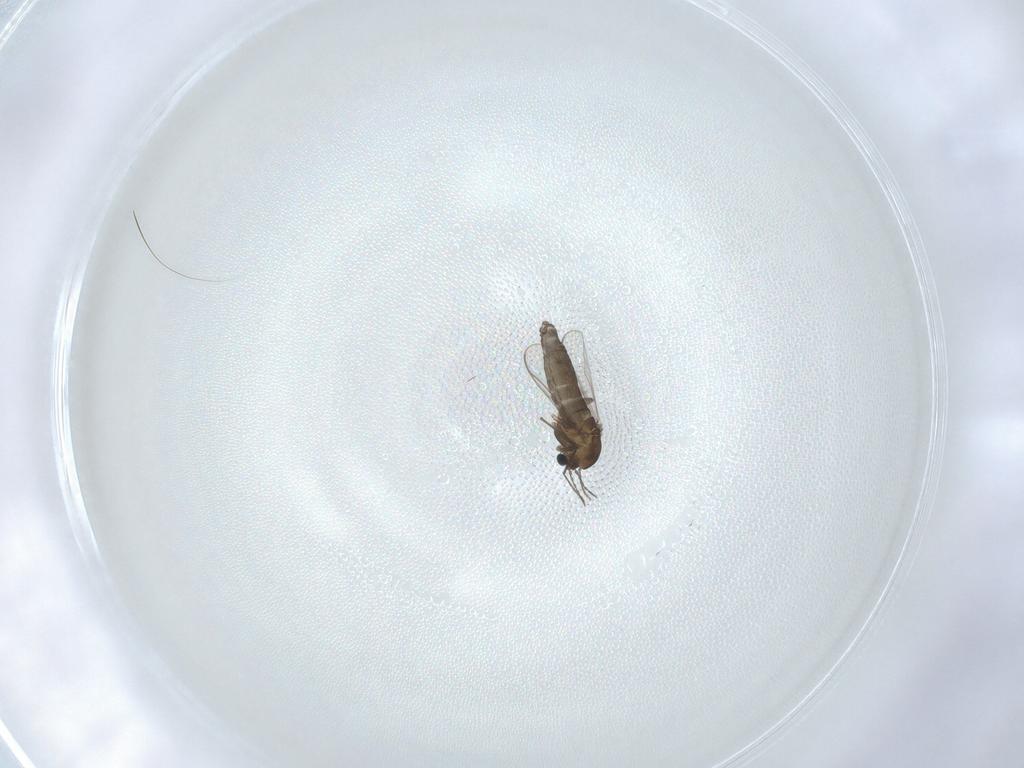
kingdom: Animalia
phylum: Arthropoda
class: Insecta
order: Diptera
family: Chironomidae
